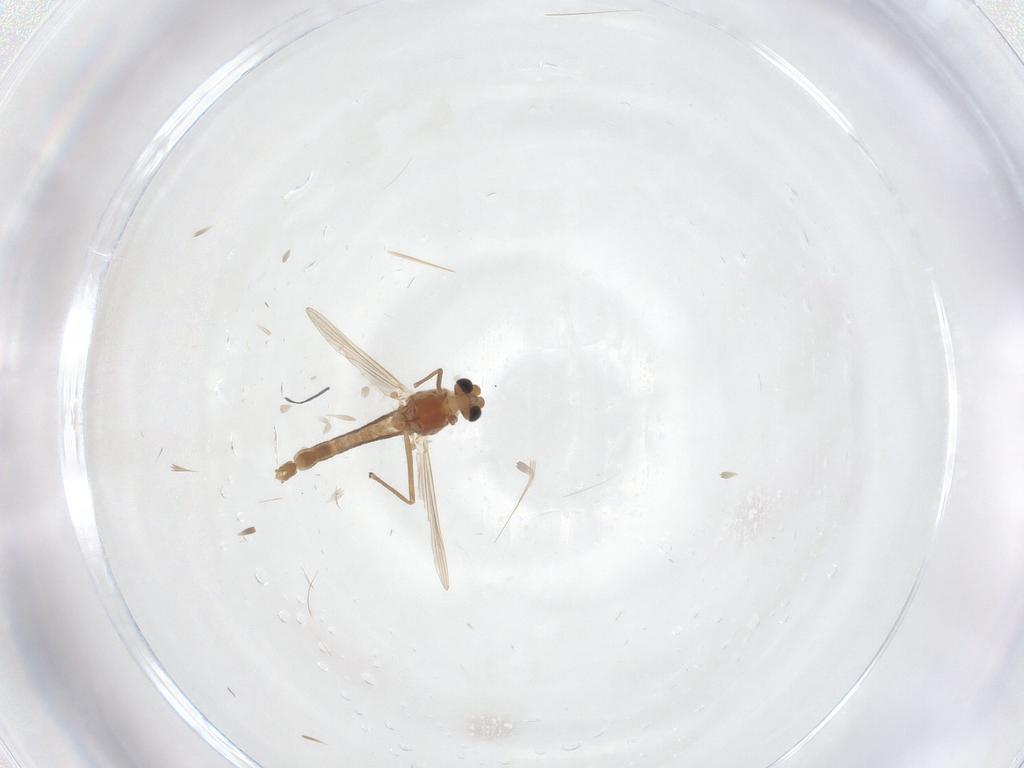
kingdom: Animalia
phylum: Arthropoda
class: Insecta
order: Diptera
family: Chironomidae
